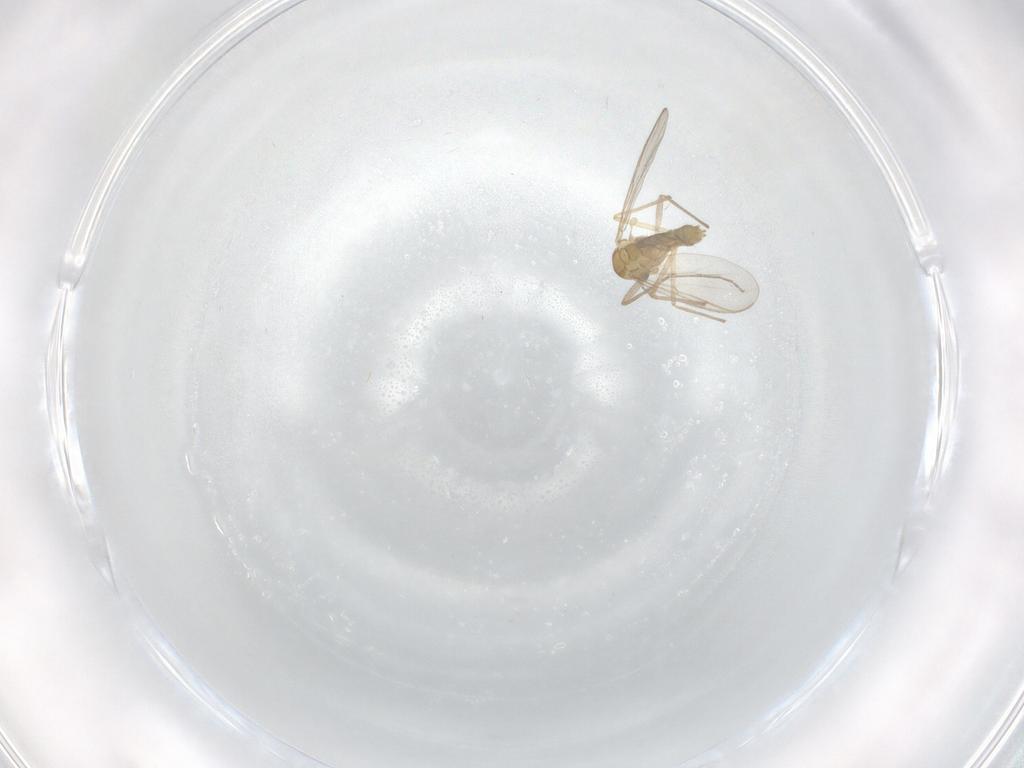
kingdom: Animalia
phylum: Arthropoda
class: Insecta
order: Diptera
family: Chironomidae
